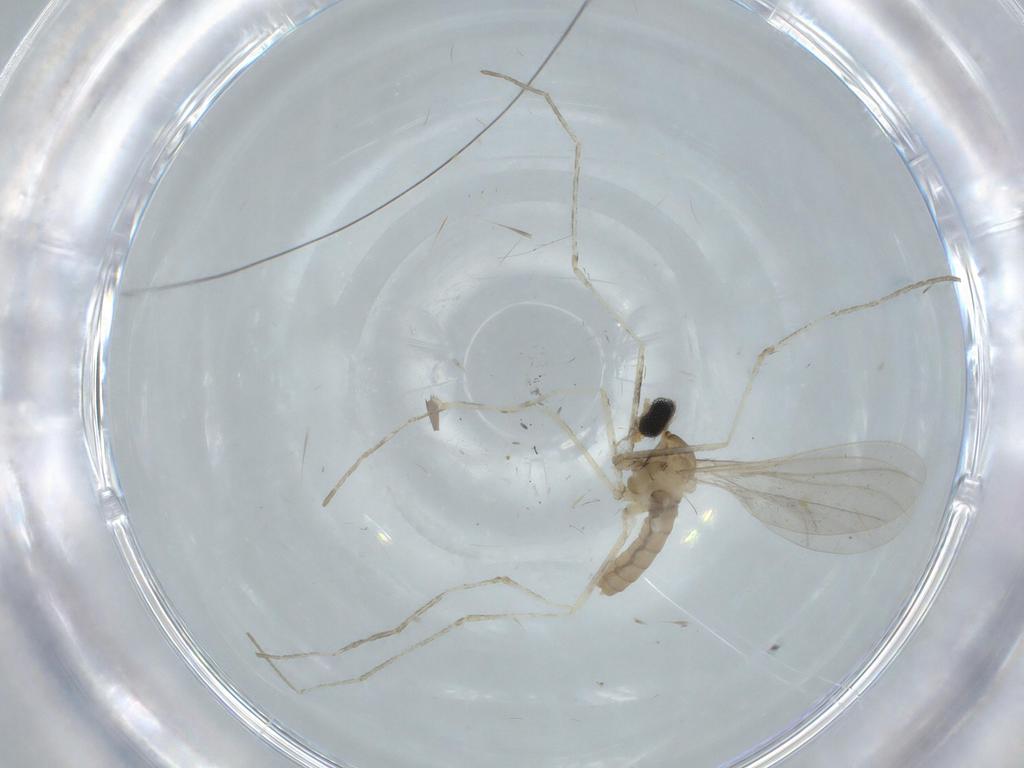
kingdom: Animalia
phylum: Arthropoda
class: Insecta
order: Diptera
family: Cecidomyiidae
